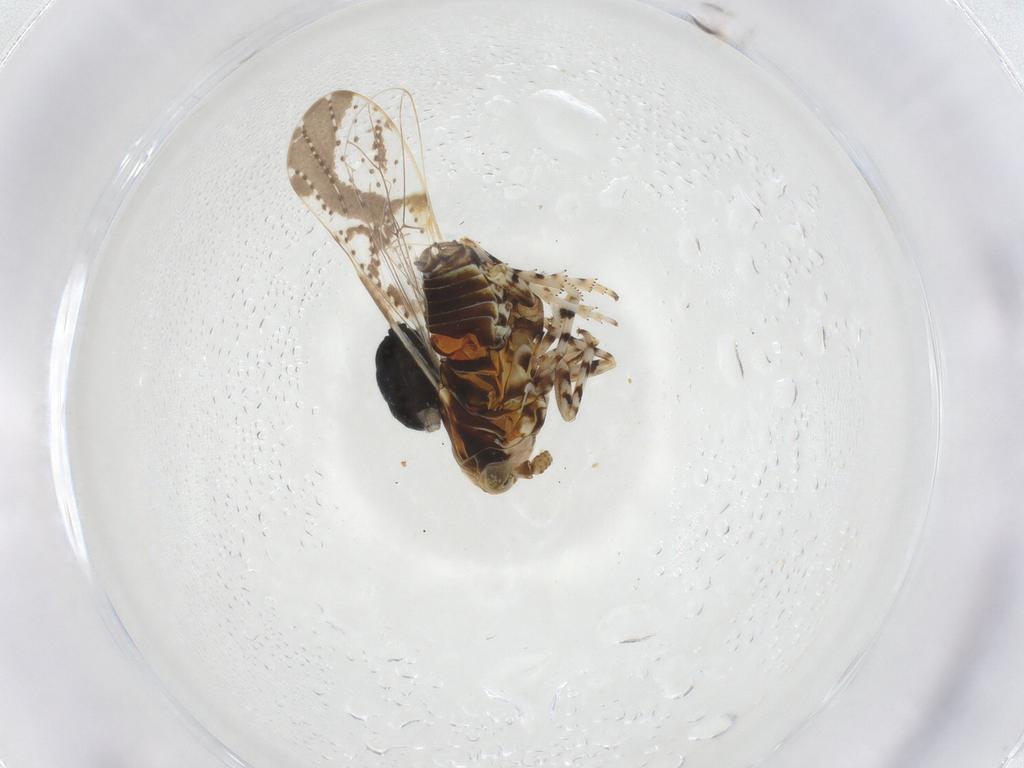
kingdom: Animalia
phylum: Arthropoda
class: Insecta
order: Hemiptera
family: Delphacidae
